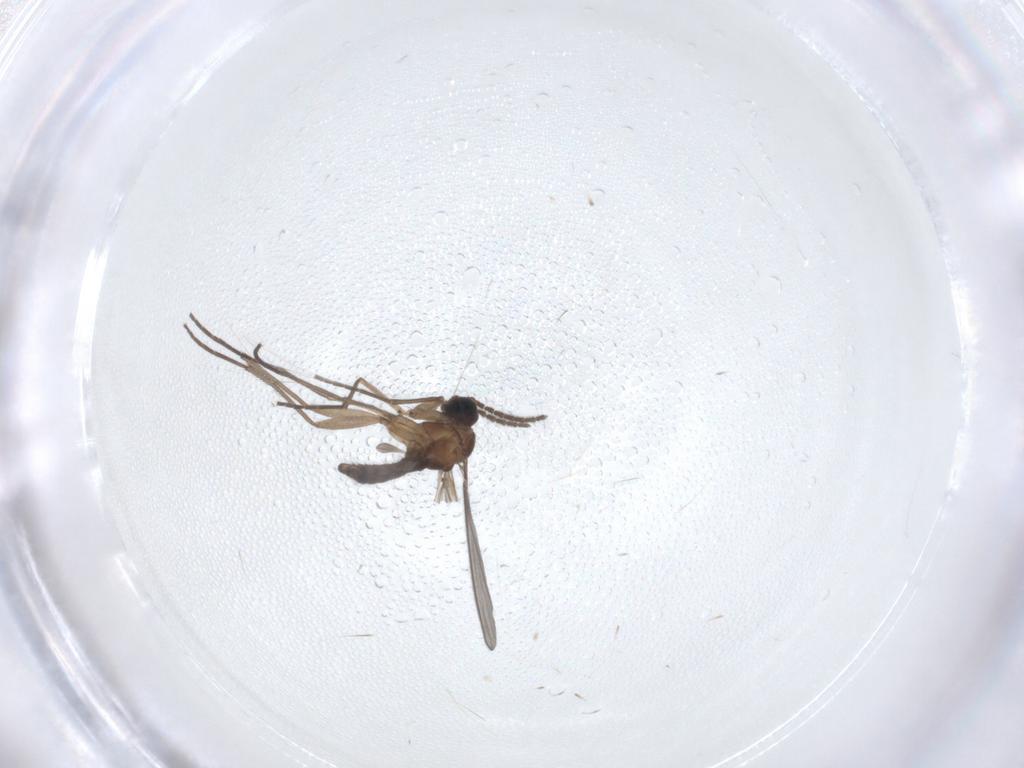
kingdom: Animalia
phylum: Arthropoda
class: Insecta
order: Diptera
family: Sciaridae
